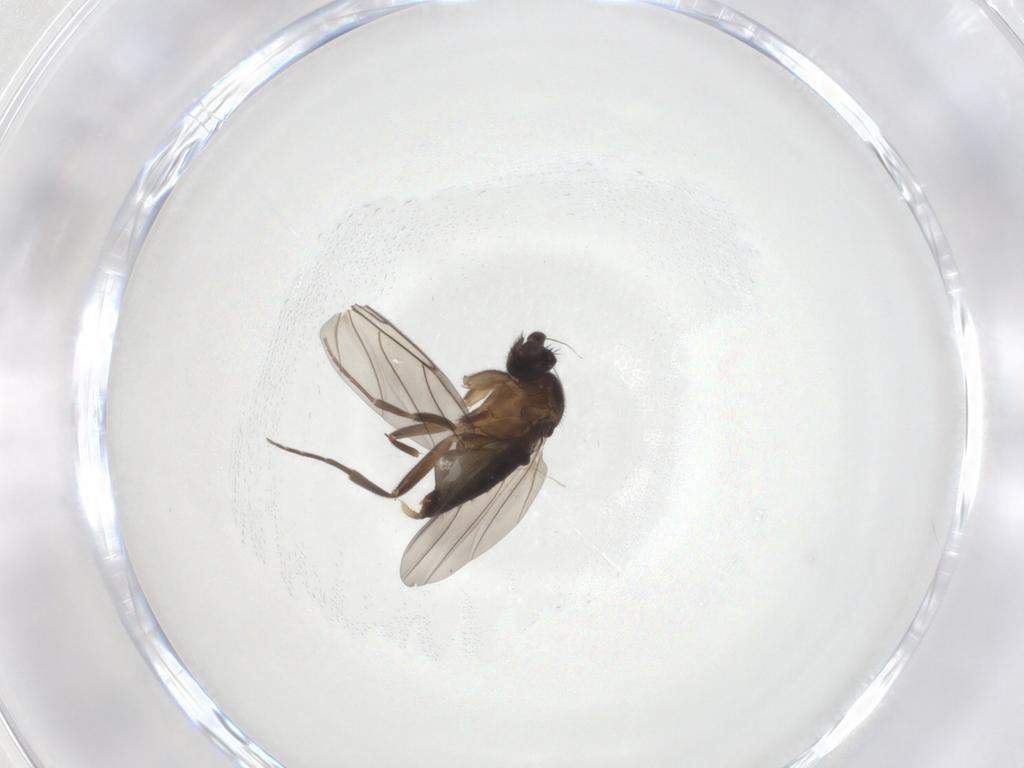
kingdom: Animalia
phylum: Arthropoda
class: Insecta
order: Diptera
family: Phoridae
